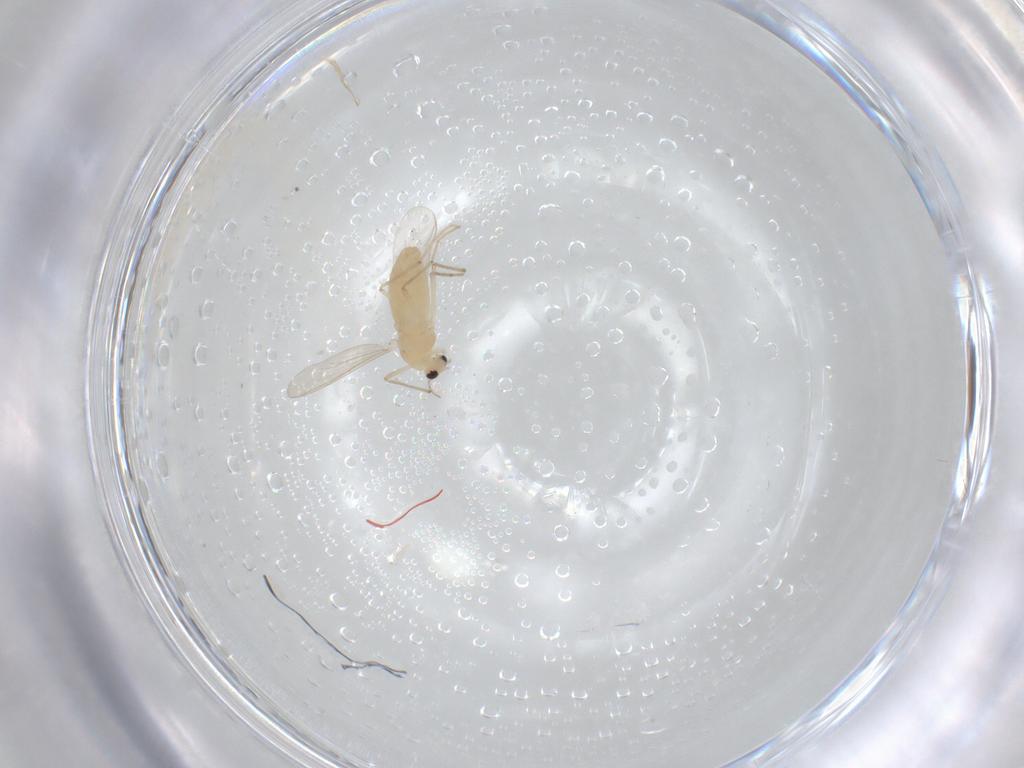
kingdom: Animalia
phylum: Arthropoda
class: Insecta
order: Diptera
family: Chironomidae
